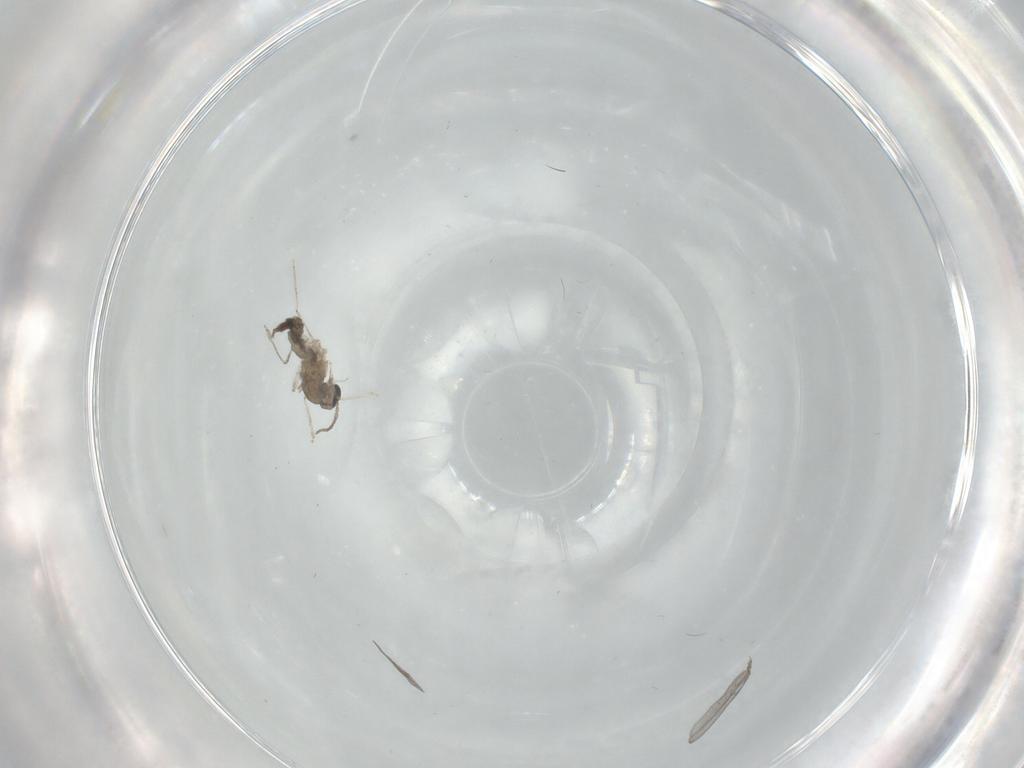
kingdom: Animalia
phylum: Arthropoda
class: Insecta
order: Diptera
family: Cecidomyiidae
